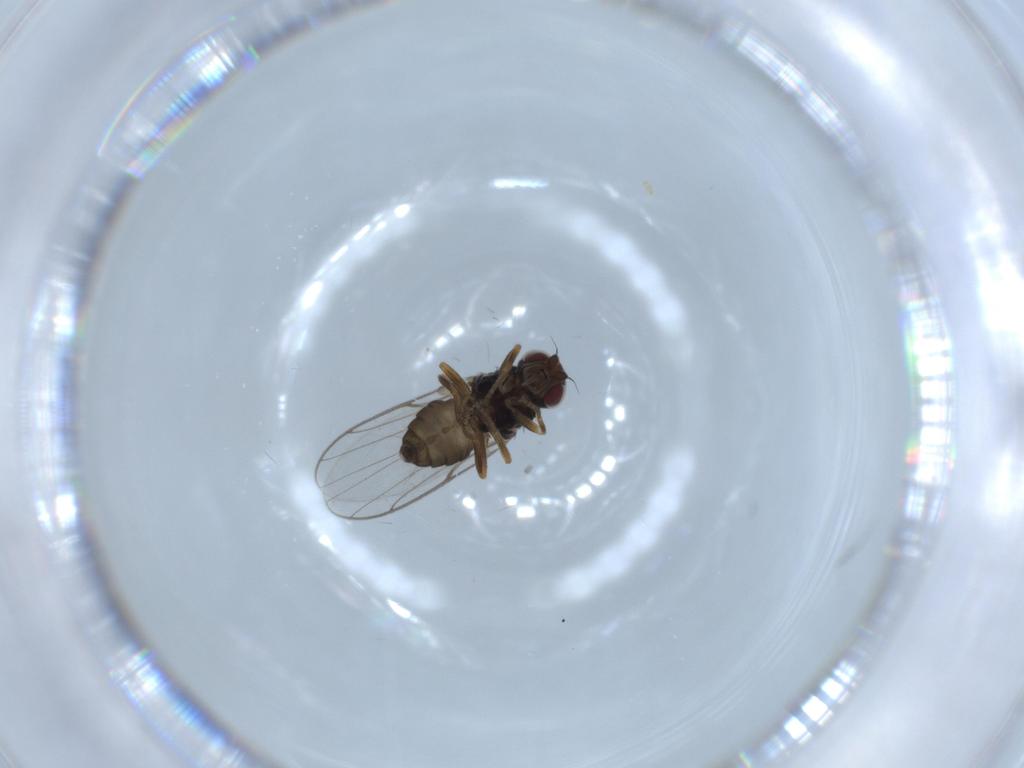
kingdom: Animalia
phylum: Arthropoda
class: Insecta
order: Diptera
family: Chloropidae
